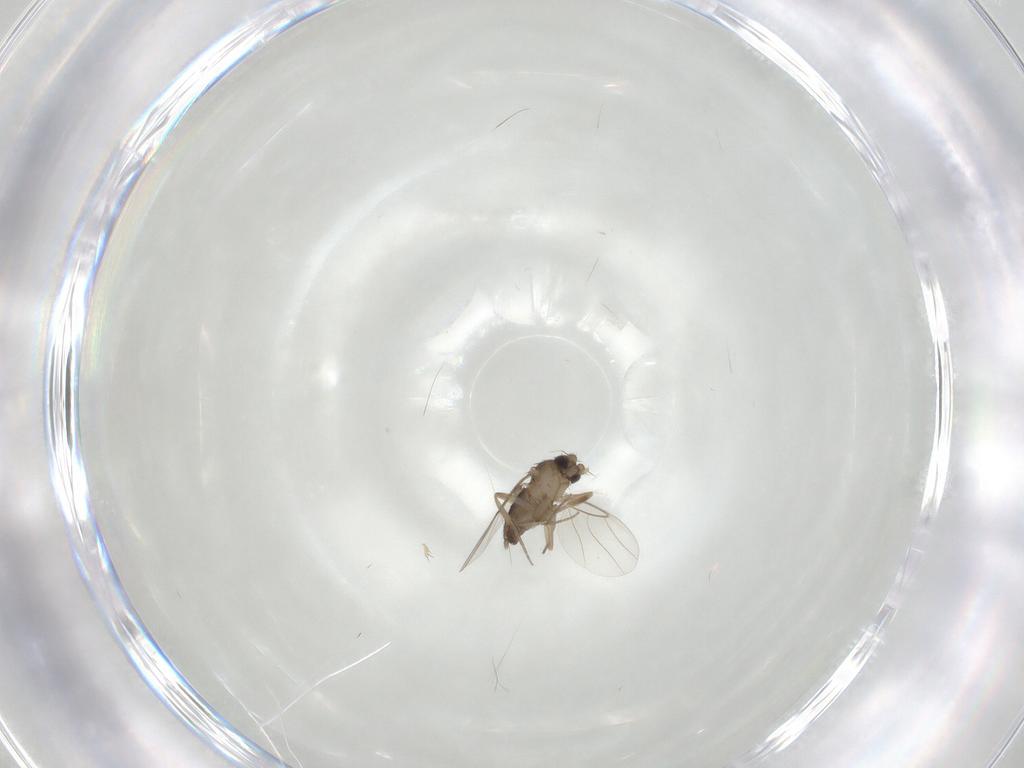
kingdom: Animalia
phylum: Arthropoda
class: Insecta
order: Diptera
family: Phoridae
